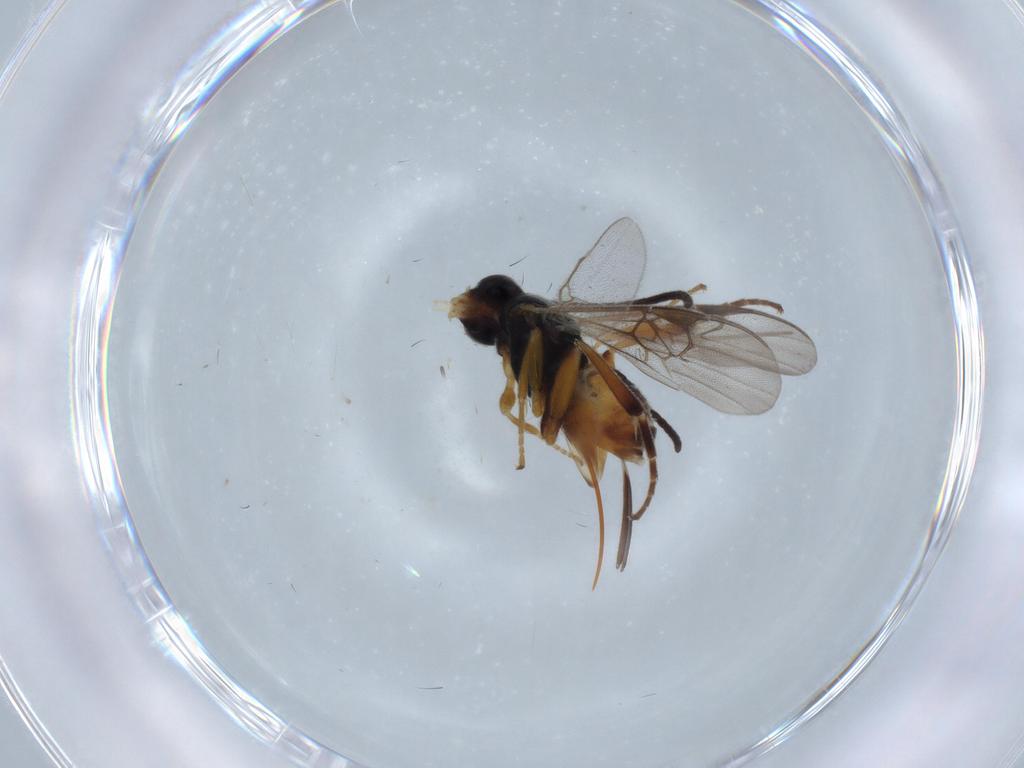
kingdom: Animalia
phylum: Arthropoda
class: Insecta
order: Hymenoptera
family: Braconidae
